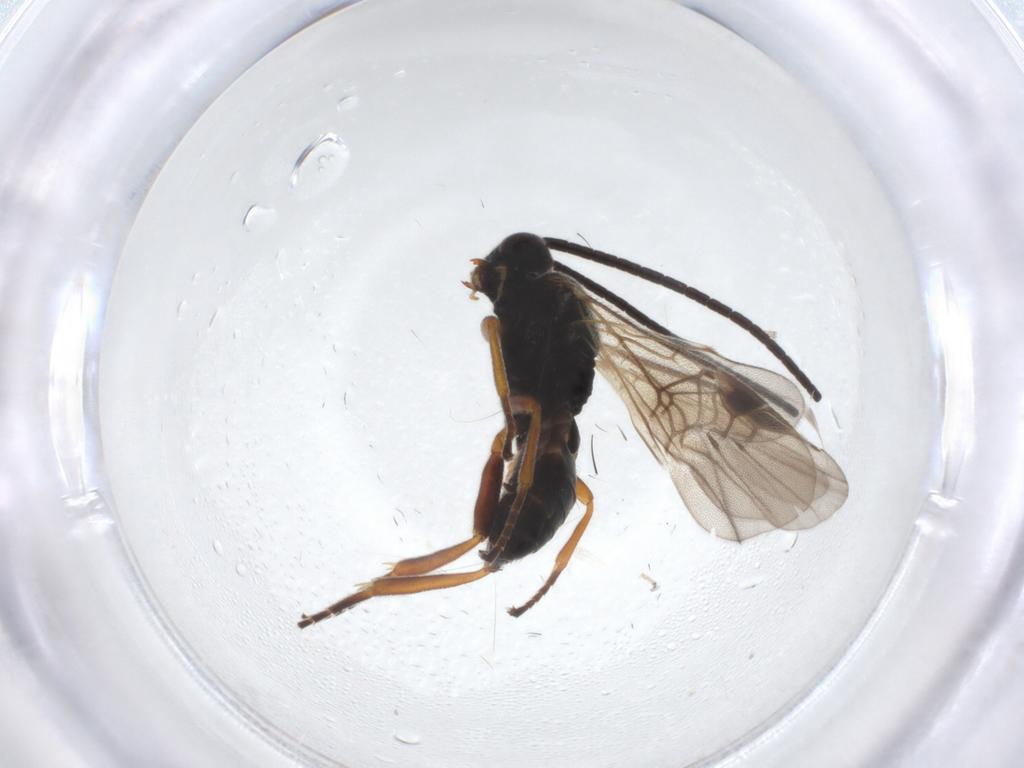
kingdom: Animalia
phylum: Arthropoda
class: Insecta
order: Hymenoptera
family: Braconidae
